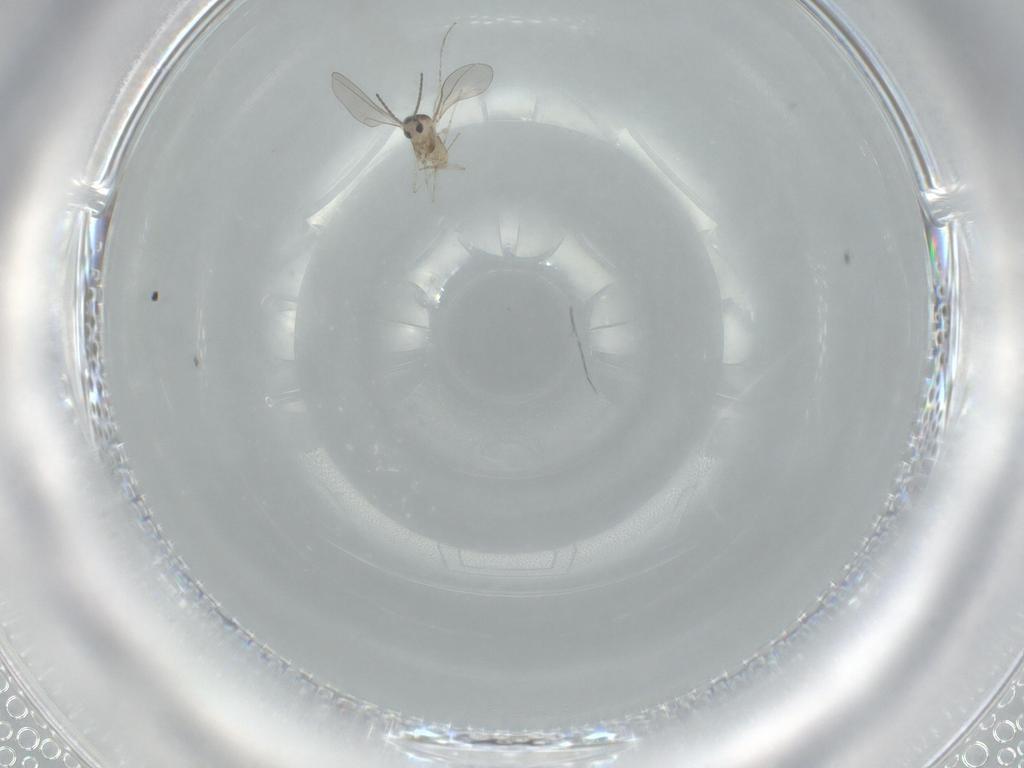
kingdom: Animalia
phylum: Arthropoda
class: Insecta
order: Diptera
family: Cecidomyiidae
